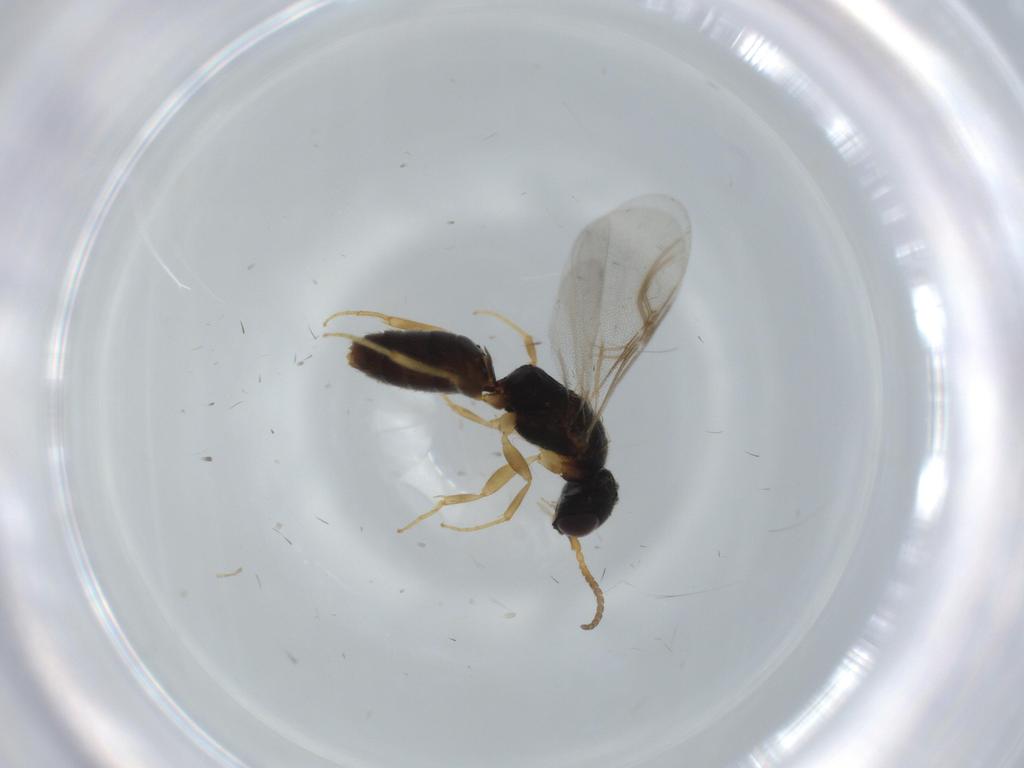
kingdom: Animalia
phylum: Arthropoda
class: Insecta
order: Hymenoptera
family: Bethylidae
